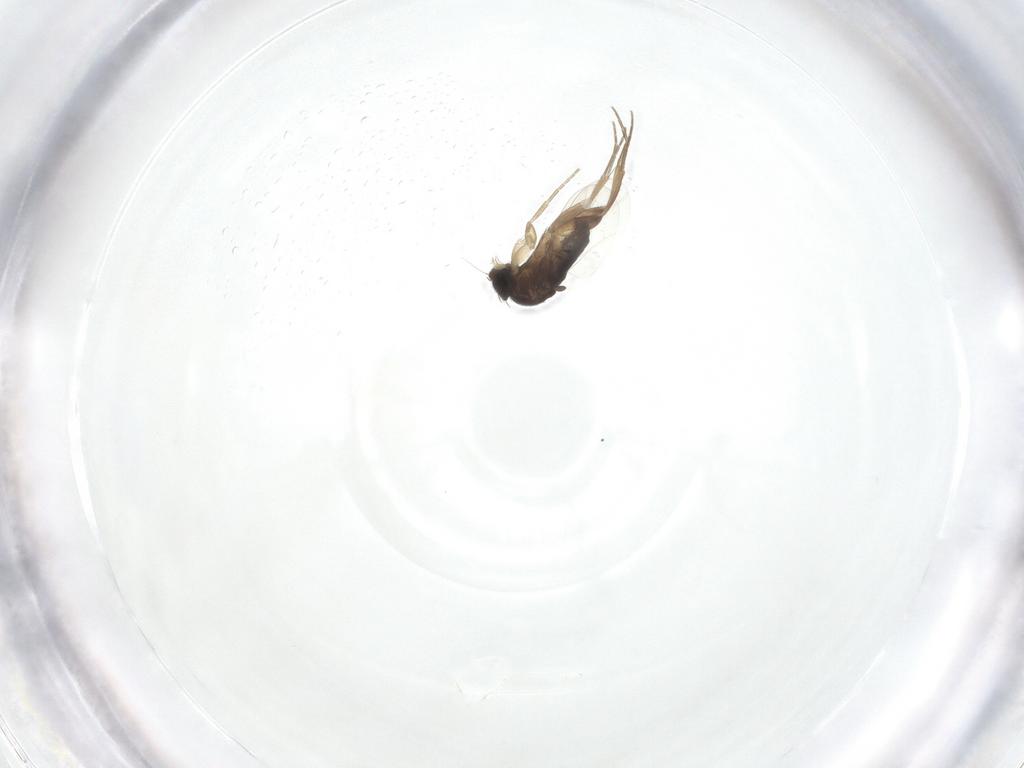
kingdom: Animalia
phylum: Arthropoda
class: Insecta
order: Diptera
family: Phoridae
